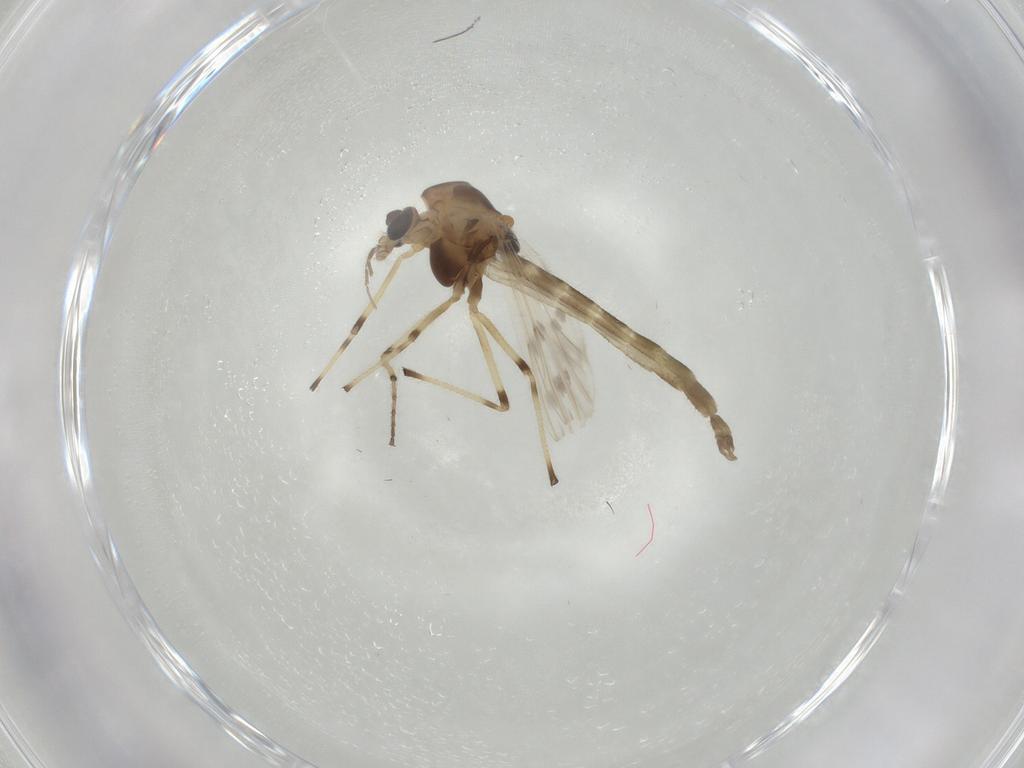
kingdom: Animalia
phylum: Arthropoda
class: Insecta
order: Diptera
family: Chironomidae
